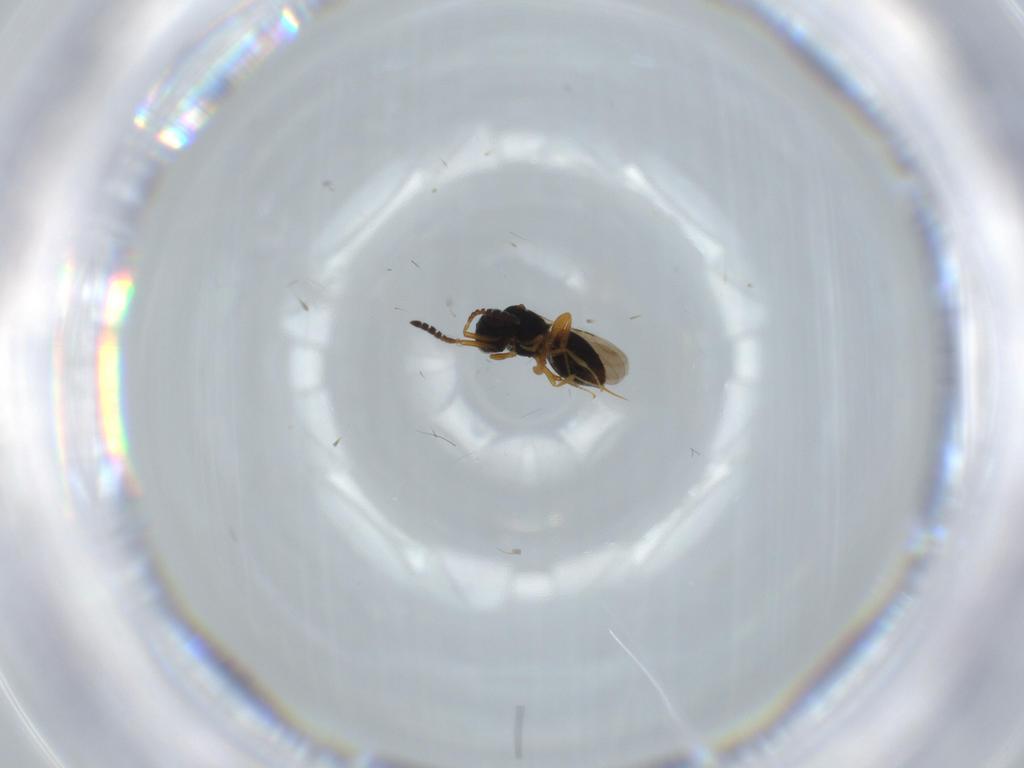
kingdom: Animalia
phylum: Arthropoda
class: Insecta
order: Hymenoptera
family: Ceraphronidae
